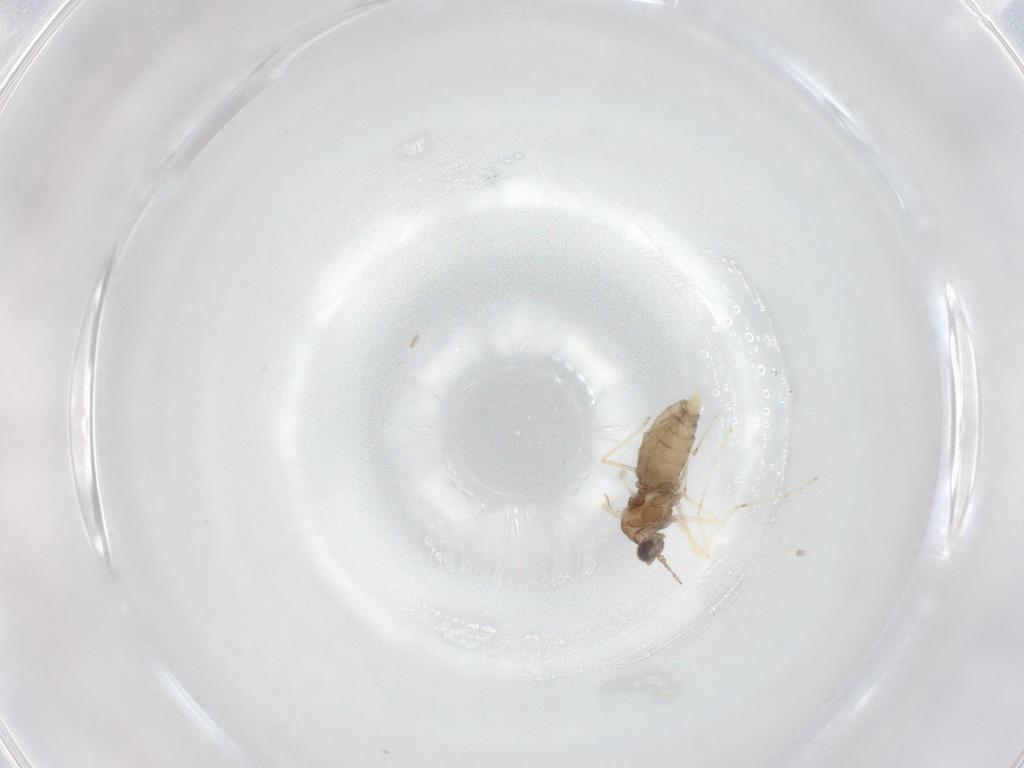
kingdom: Animalia
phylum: Arthropoda
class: Insecta
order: Diptera
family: Cecidomyiidae
